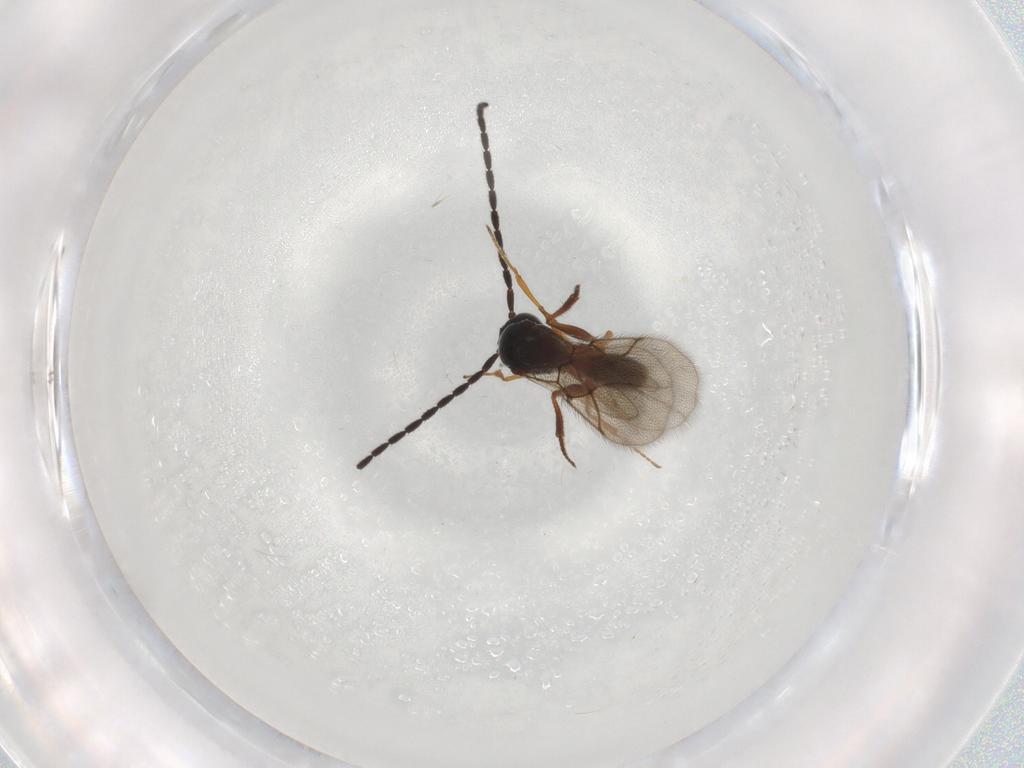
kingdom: Animalia
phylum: Arthropoda
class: Insecta
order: Hymenoptera
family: Figitidae
